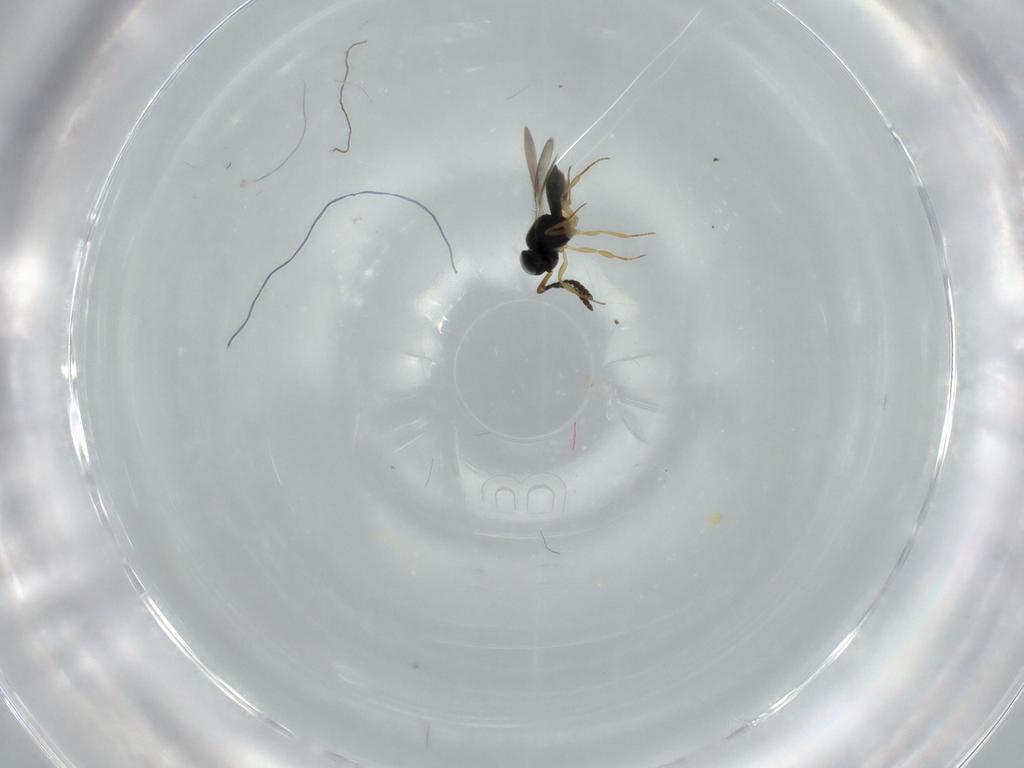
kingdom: Animalia
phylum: Arthropoda
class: Insecta
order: Hymenoptera
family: Scelionidae
